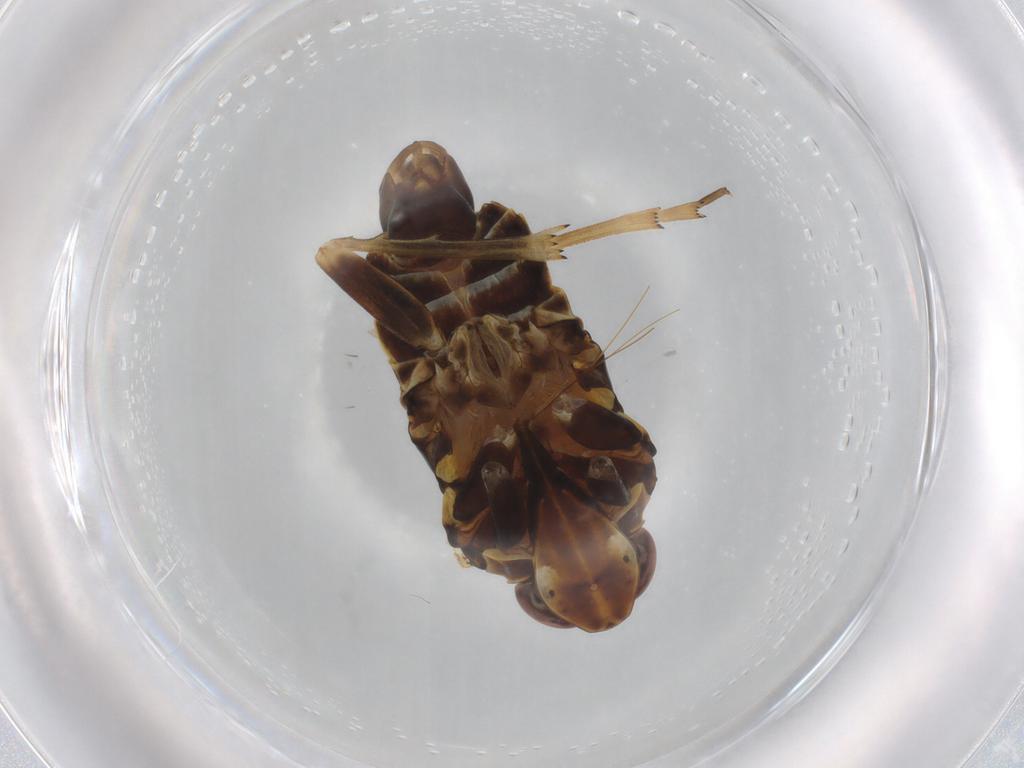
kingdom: Animalia
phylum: Arthropoda
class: Insecta
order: Hemiptera
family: Cixiidae
